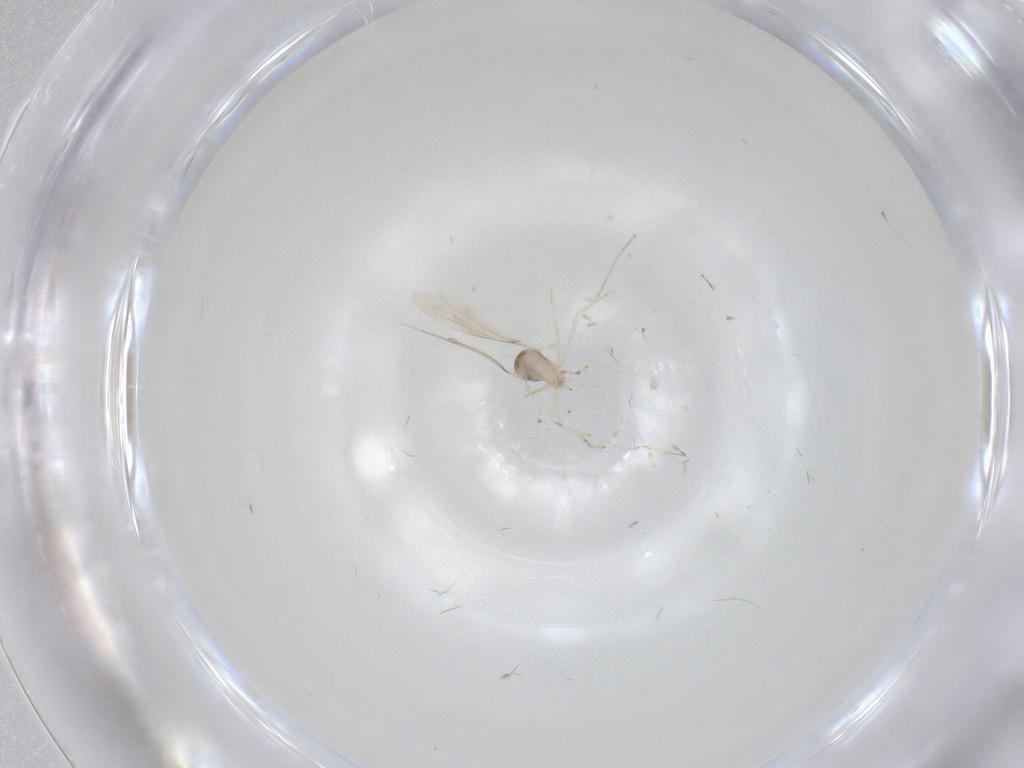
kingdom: Animalia
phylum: Arthropoda
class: Insecta
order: Diptera
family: Cecidomyiidae
